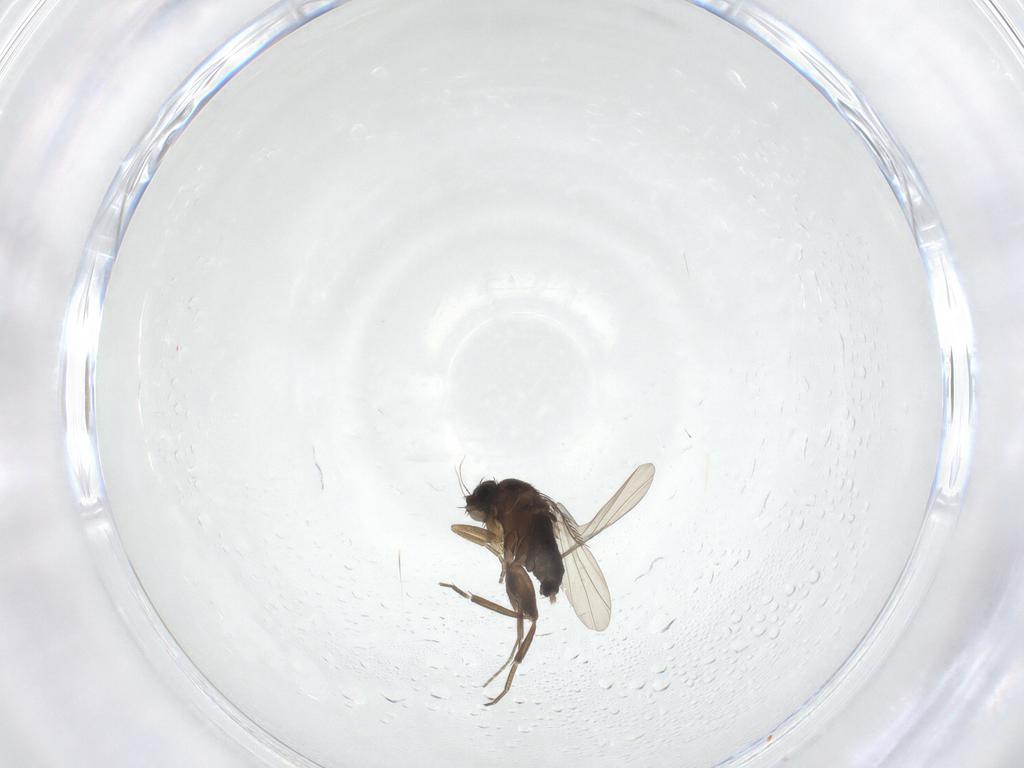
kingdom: Animalia
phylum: Arthropoda
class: Insecta
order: Diptera
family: Phoridae
